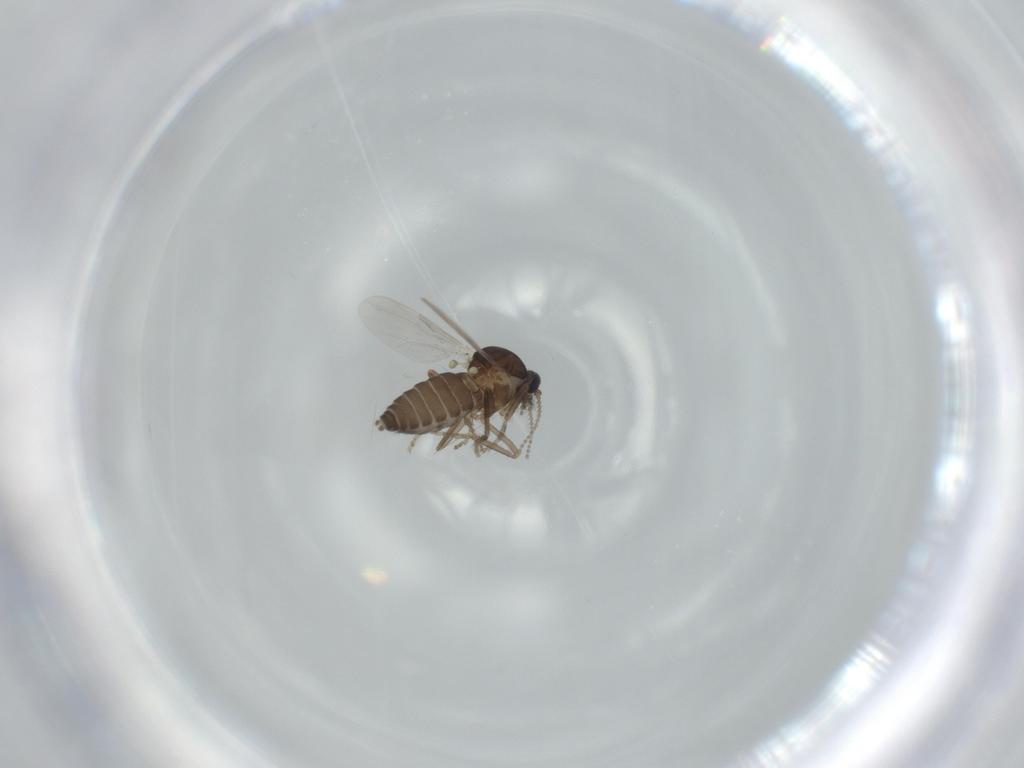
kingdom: Animalia
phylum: Arthropoda
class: Insecta
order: Diptera
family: Ceratopogonidae
